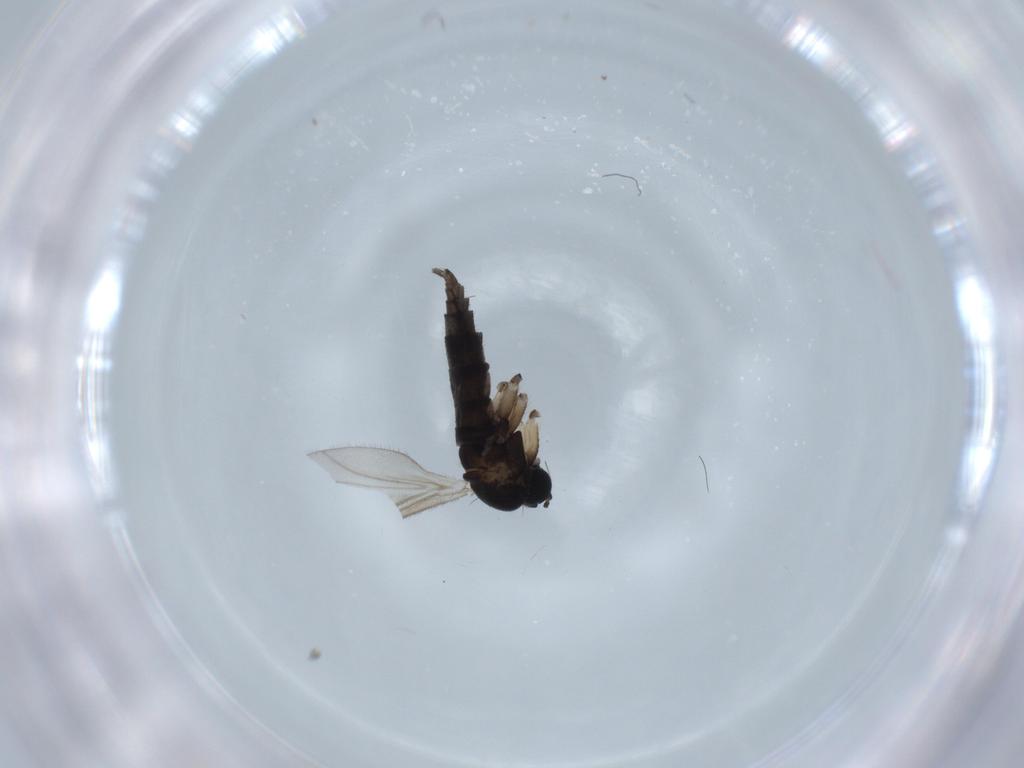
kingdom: Animalia
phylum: Arthropoda
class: Insecta
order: Diptera
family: Sciaridae
